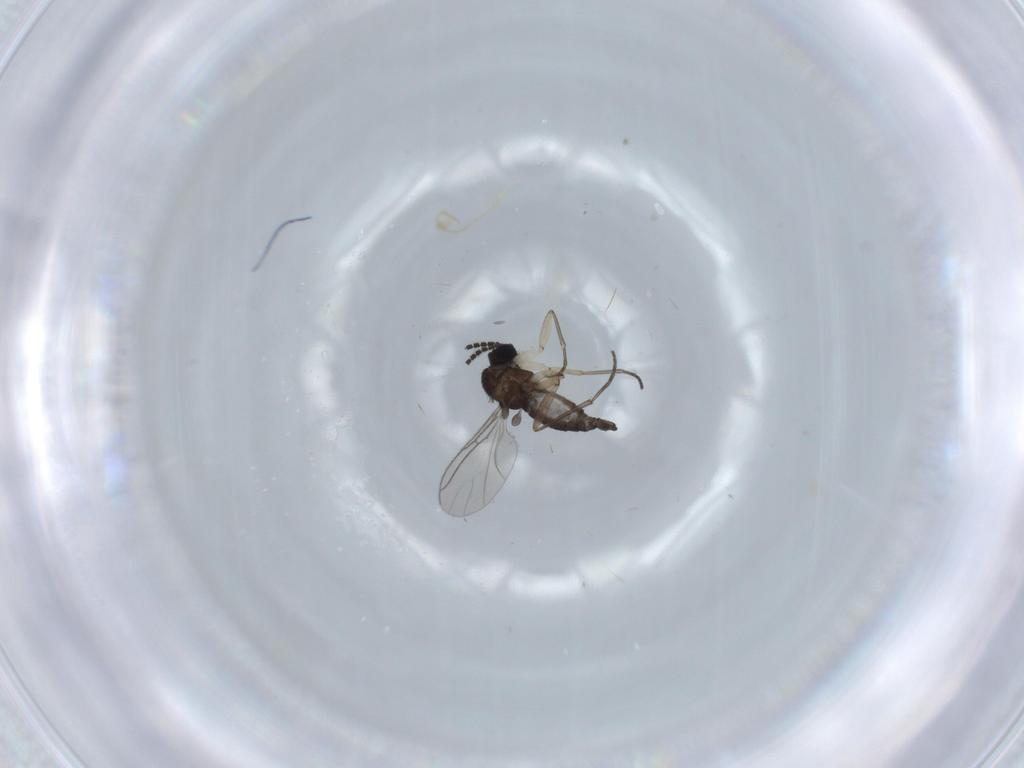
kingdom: Animalia
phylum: Arthropoda
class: Insecta
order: Diptera
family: Sciaridae
